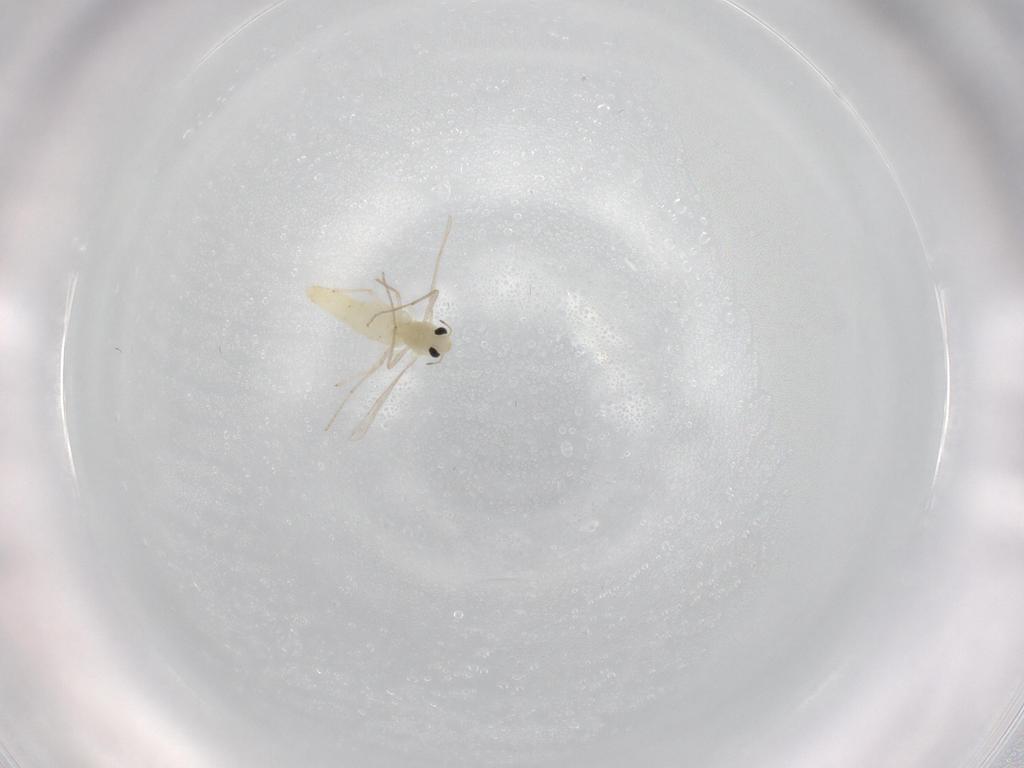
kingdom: Animalia
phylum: Arthropoda
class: Insecta
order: Diptera
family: Chironomidae
